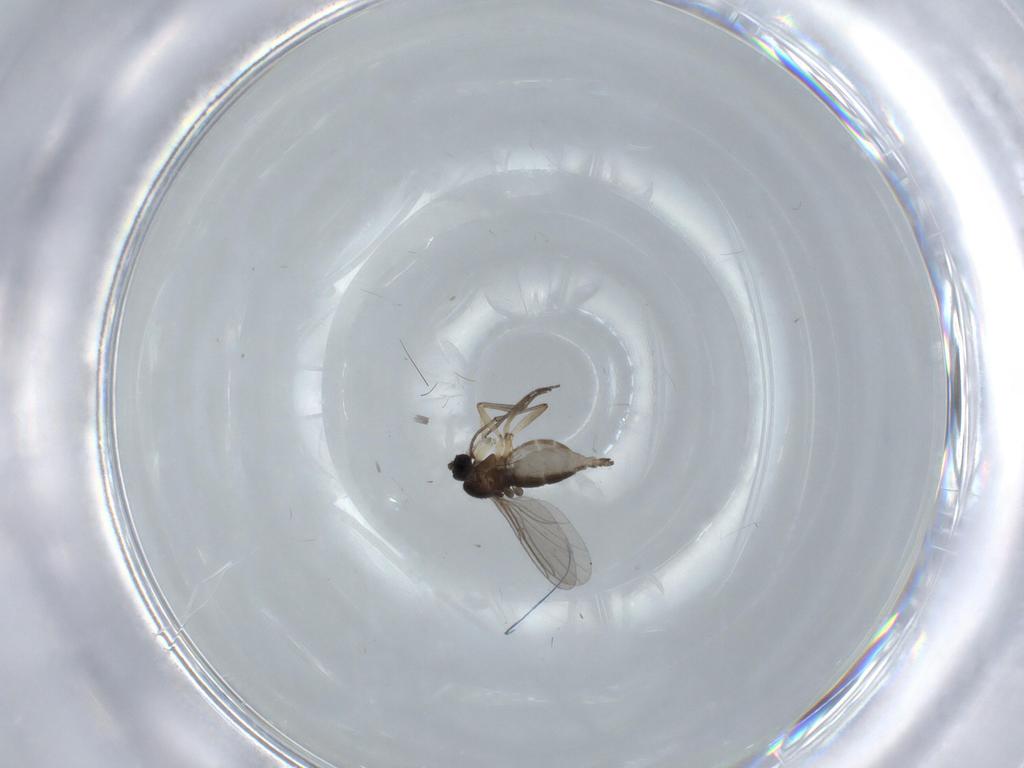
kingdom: Animalia
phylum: Arthropoda
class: Insecta
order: Diptera
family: Sciaridae
